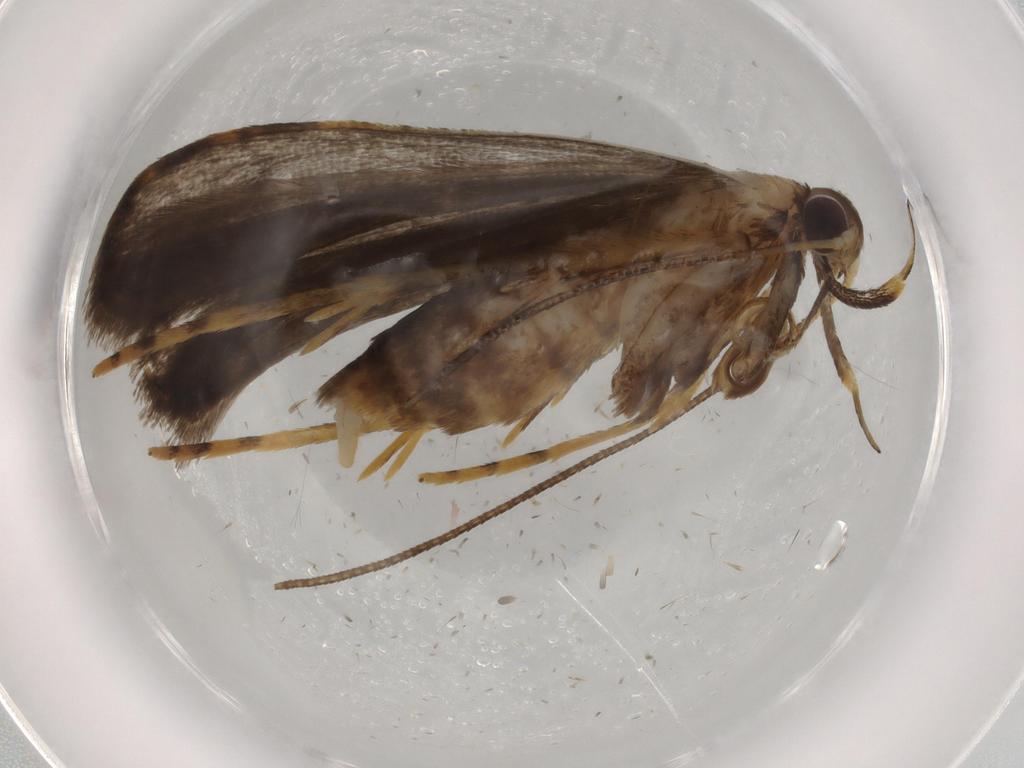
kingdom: Animalia
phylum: Arthropoda
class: Insecta
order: Lepidoptera
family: Cosmopterigidae
